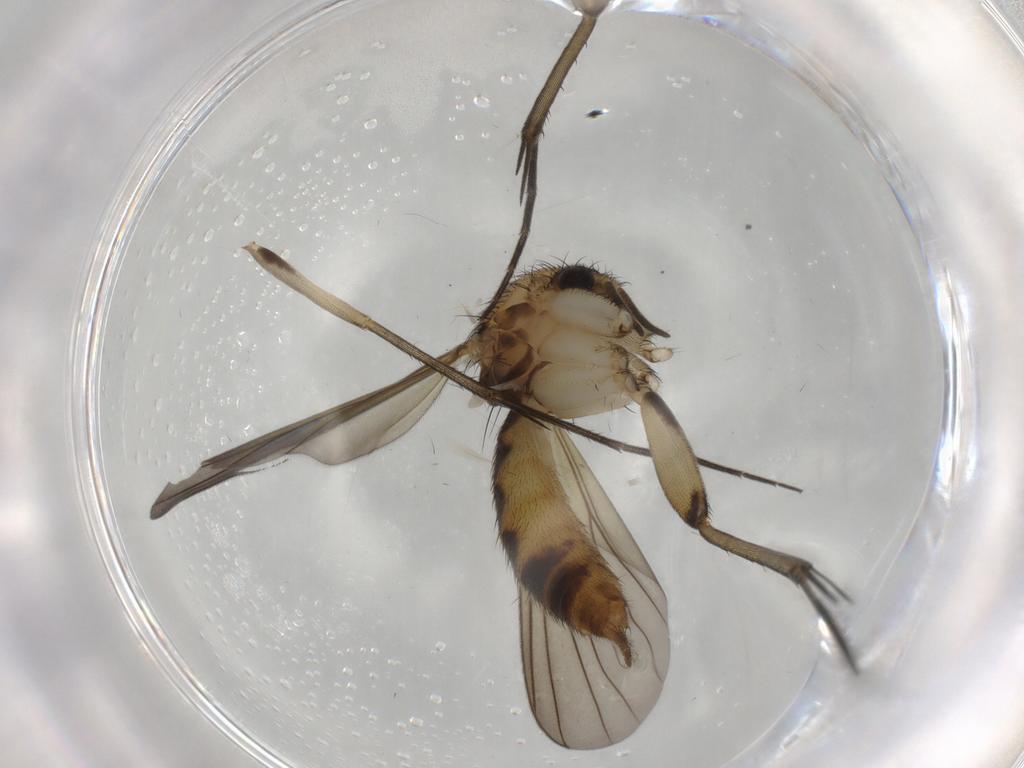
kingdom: Animalia
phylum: Arthropoda
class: Insecta
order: Diptera
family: Mycetophilidae
